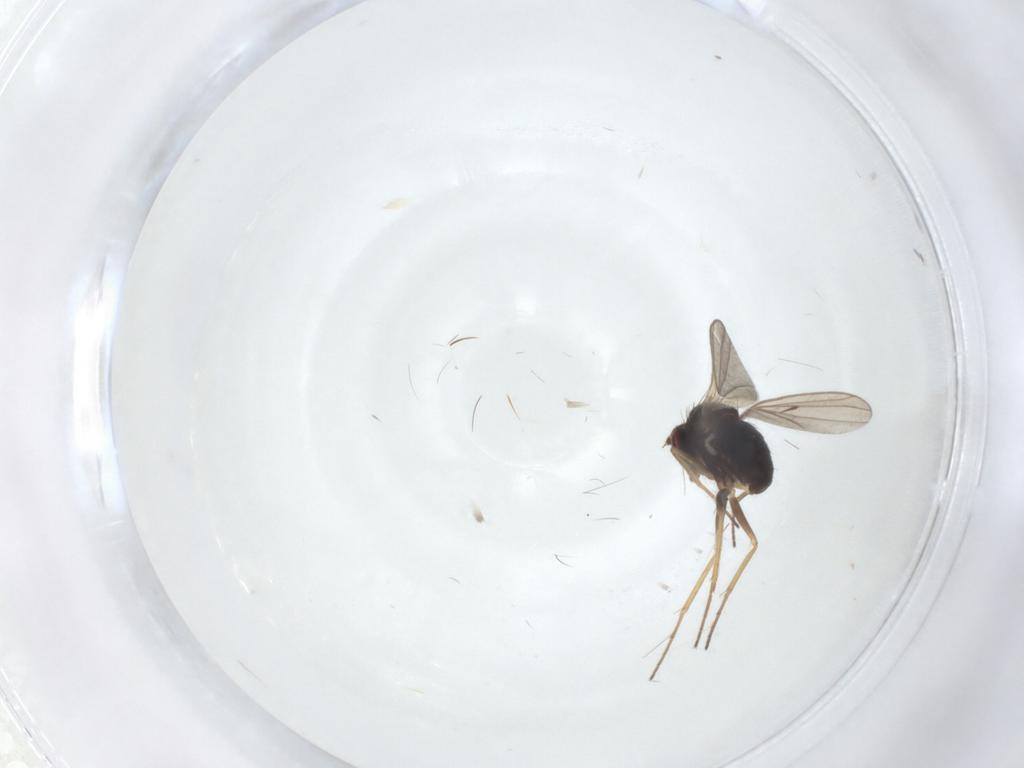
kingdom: Animalia
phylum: Arthropoda
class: Insecta
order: Diptera
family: Dolichopodidae
